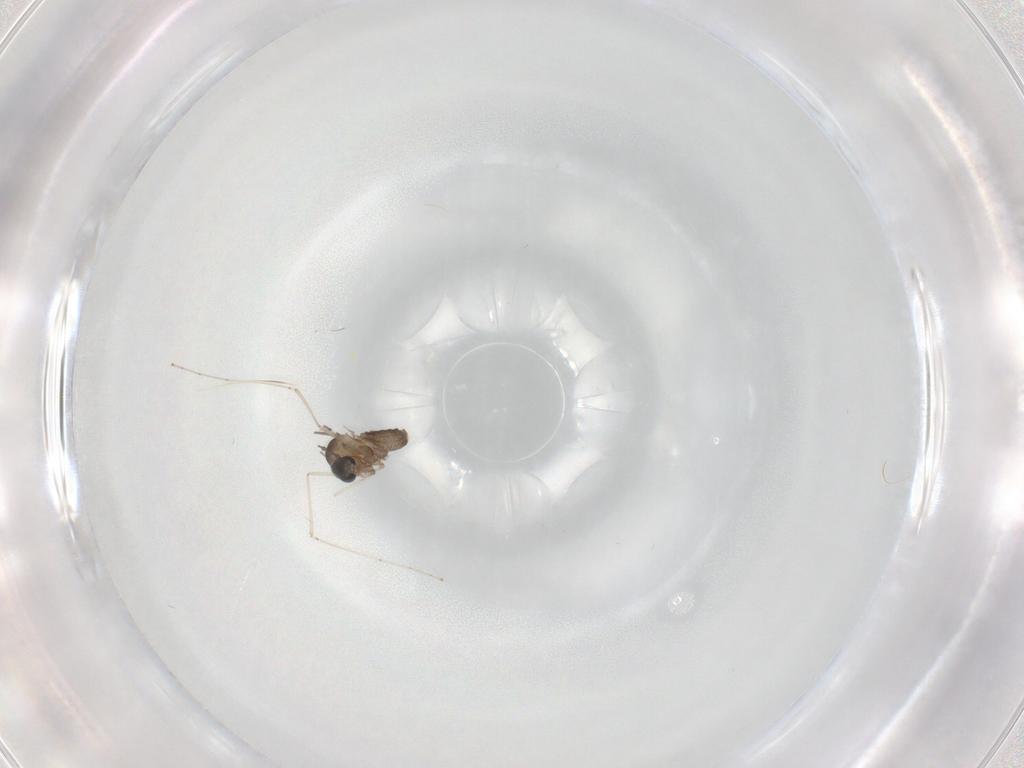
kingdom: Animalia
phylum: Arthropoda
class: Insecta
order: Diptera
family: Cecidomyiidae
